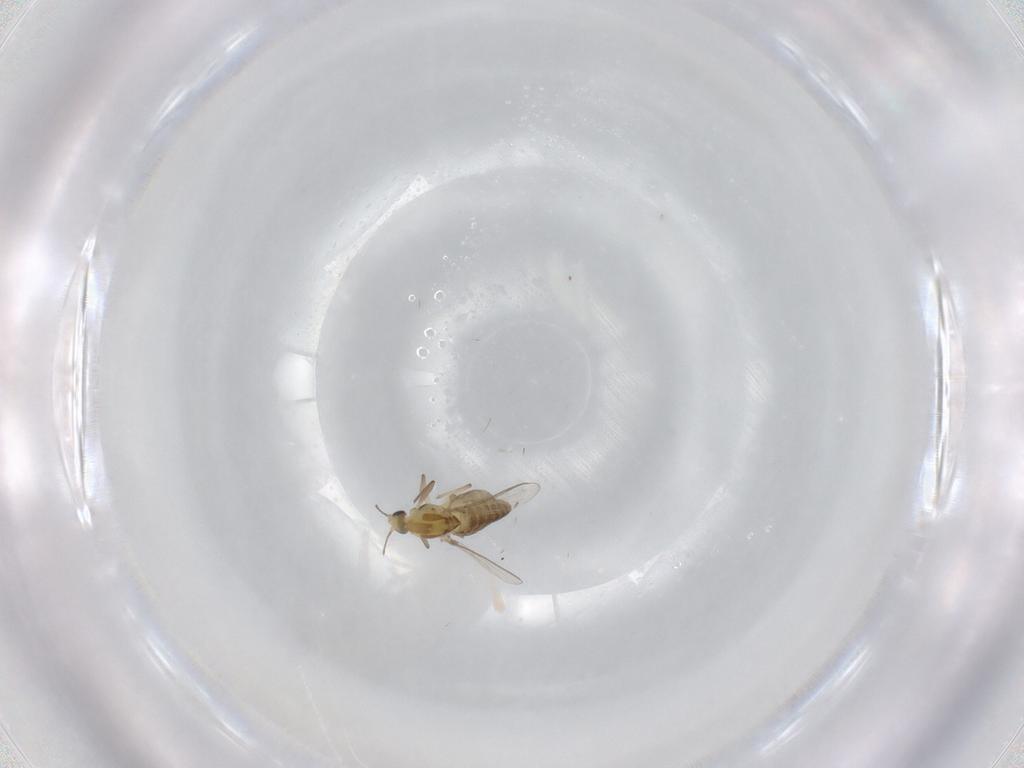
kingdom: Animalia
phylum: Arthropoda
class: Insecta
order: Diptera
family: Chironomidae
